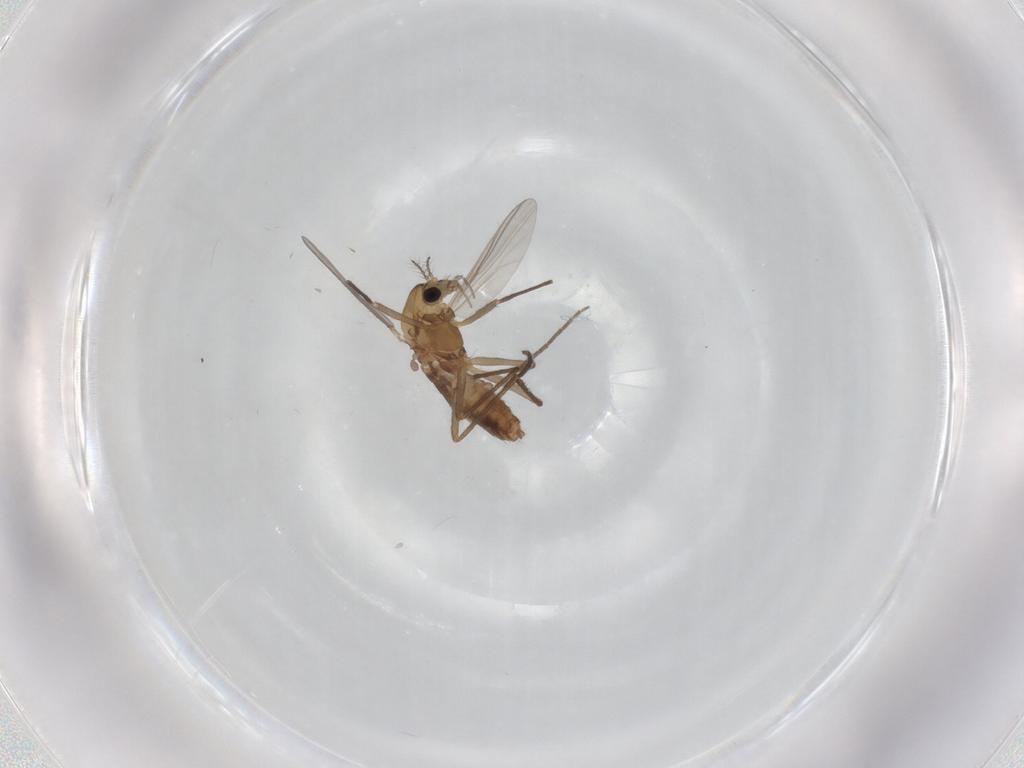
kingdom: Animalia
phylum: Arthropoda
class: Insecta
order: Diptera
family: Chironomidae
